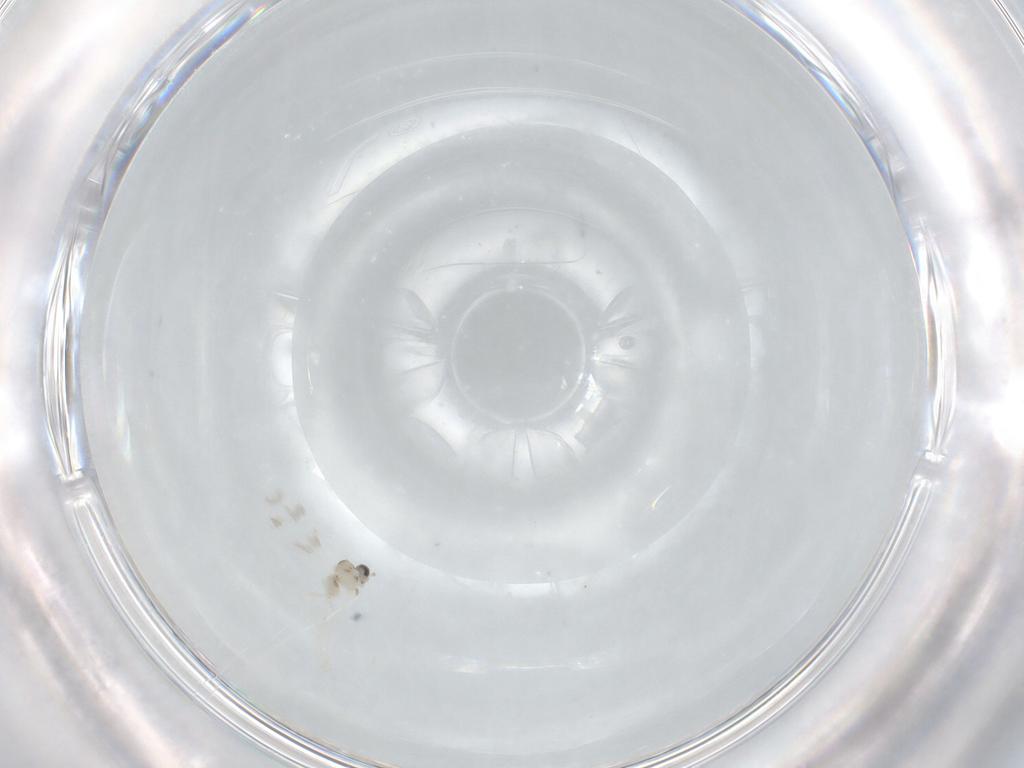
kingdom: Animalia
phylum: Arthropoda
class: Insecta
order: Diptera
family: Cecidomyiidae
